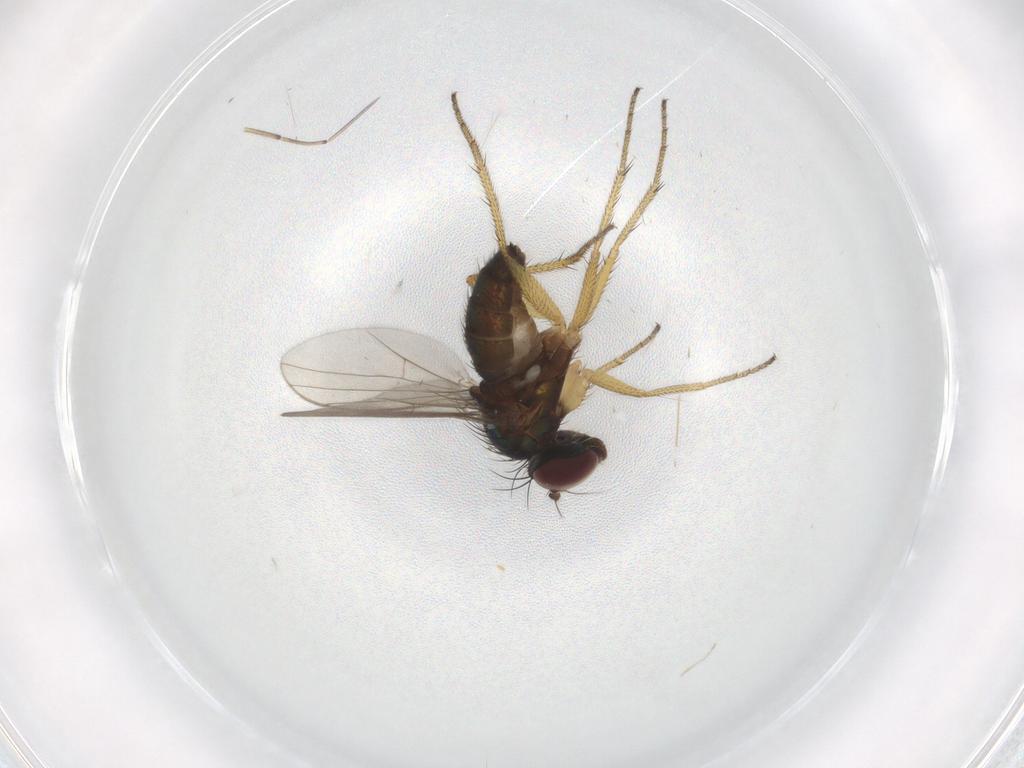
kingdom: Animalia
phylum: Arthropoda
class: Insecta
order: Diptera
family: Dolichopodidae
